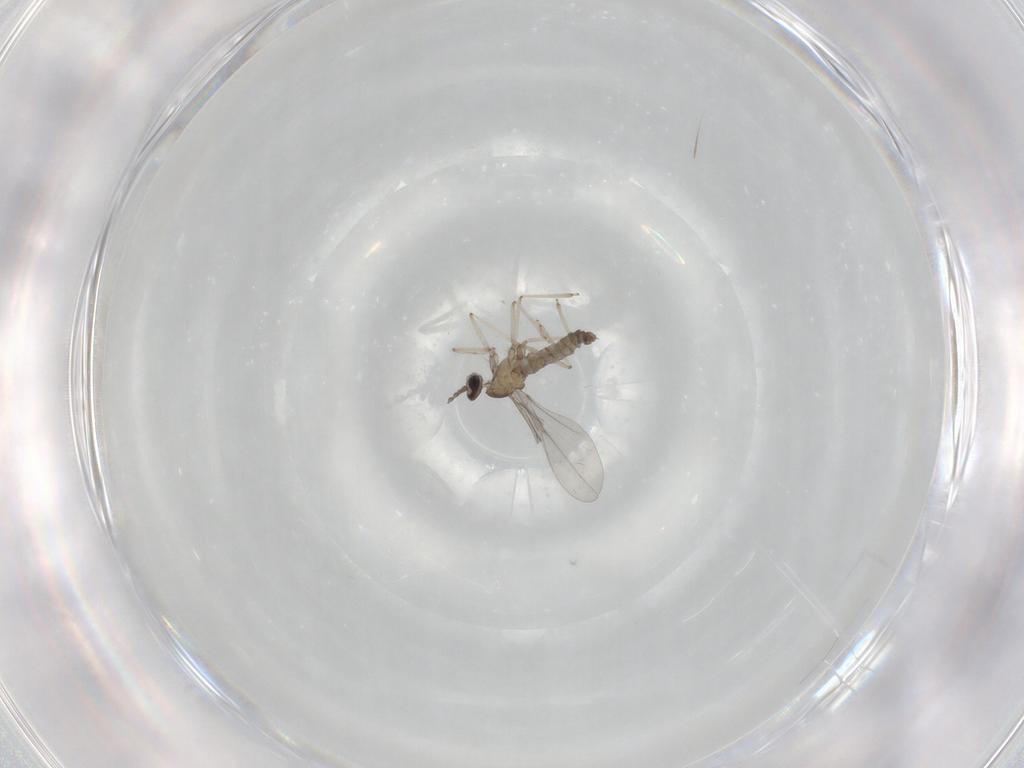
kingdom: Animalia
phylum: Arthropoda
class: Insecta
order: Diptera
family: Cecidomyiidae
